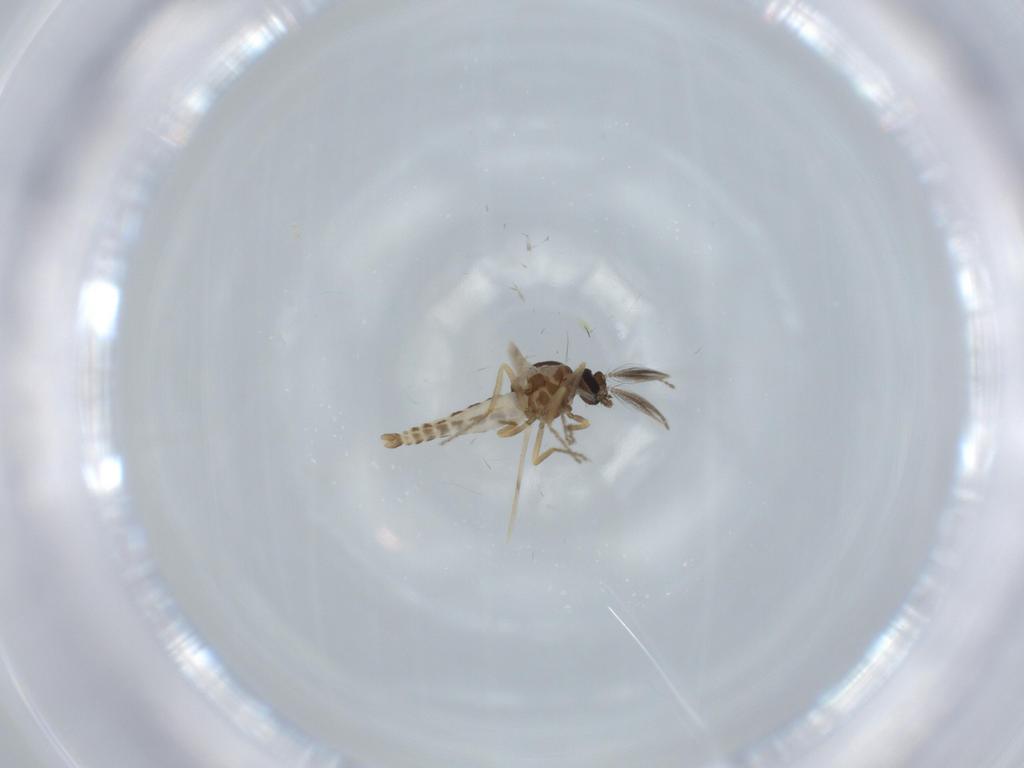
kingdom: Animalia
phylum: Arthropoda
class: Insecta
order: Diptera
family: Ceratopogonidae
